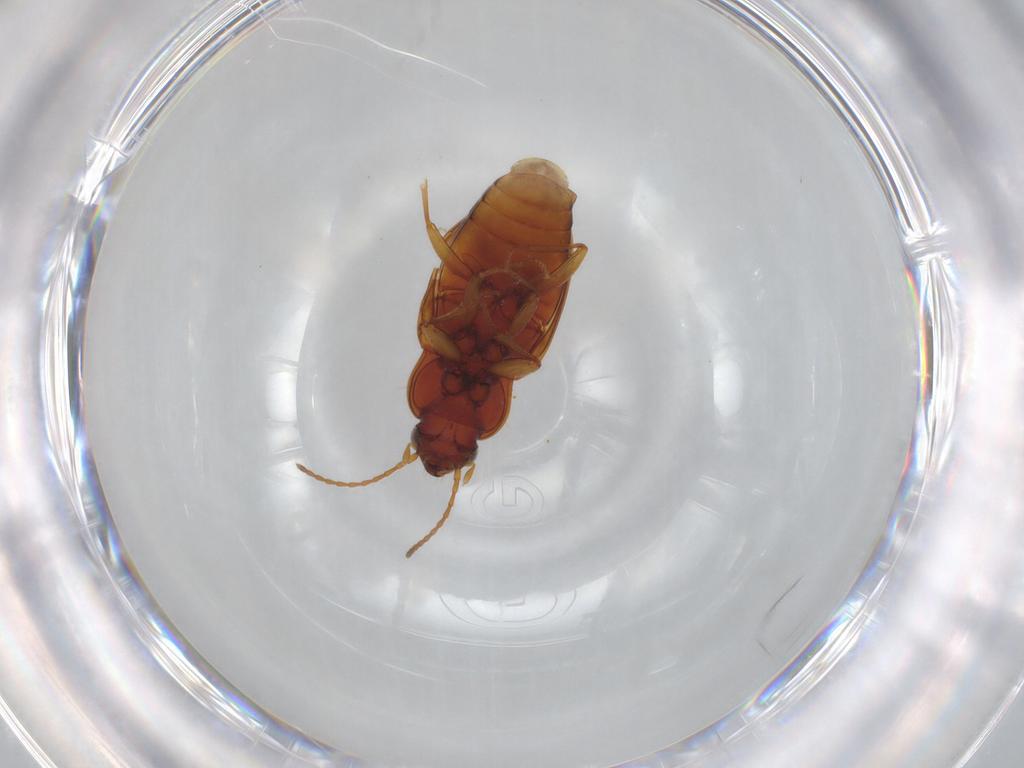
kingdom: Animalia
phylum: Arthropoda
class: Insecta
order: Coleoptera
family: Carabidae
